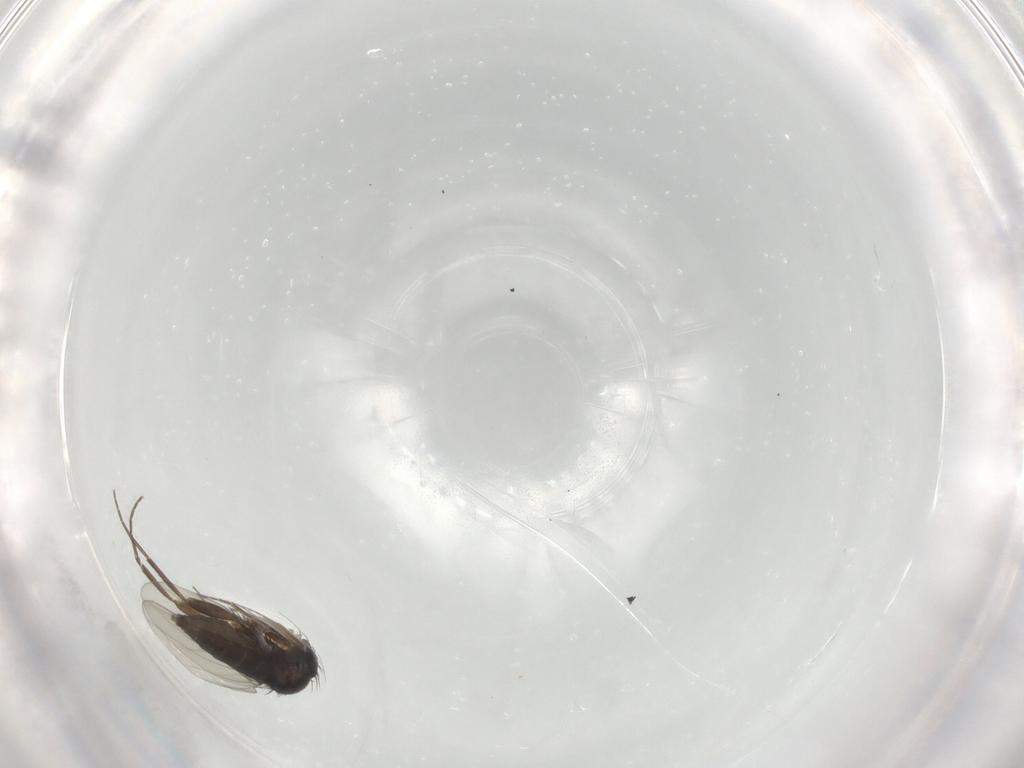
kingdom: Animalia
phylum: Arthropoda
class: Insecta
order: Diptera
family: Phoridae
